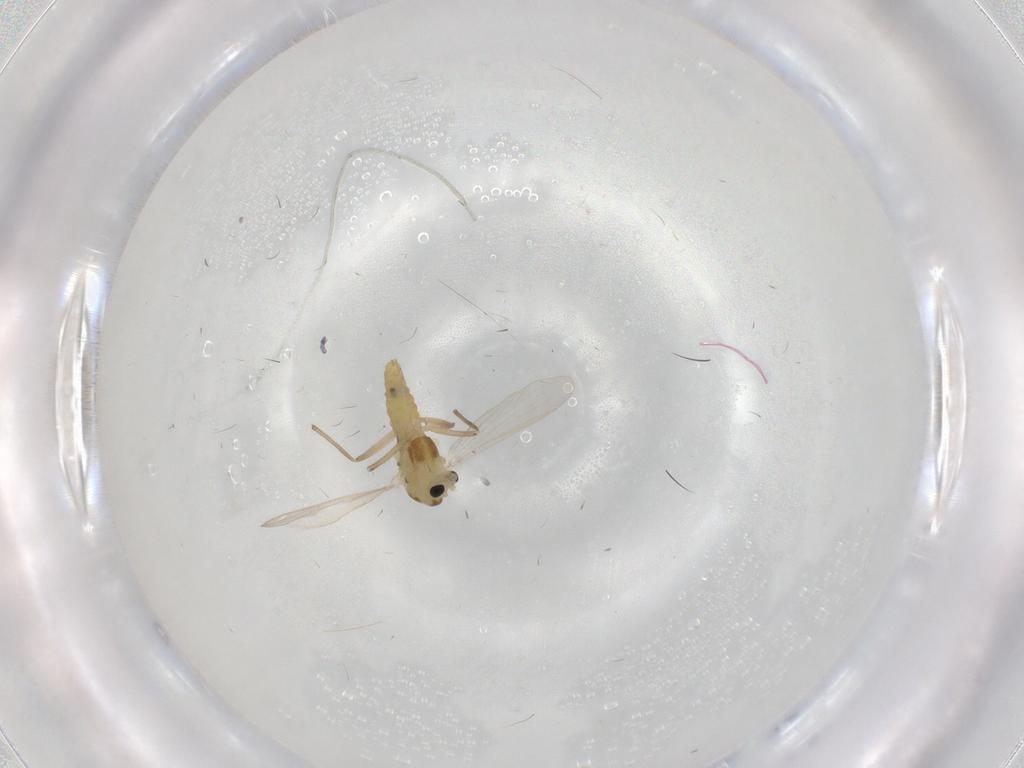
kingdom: Animalia
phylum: Arthropoda
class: Insecta
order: Diptera
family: Chironomidae
